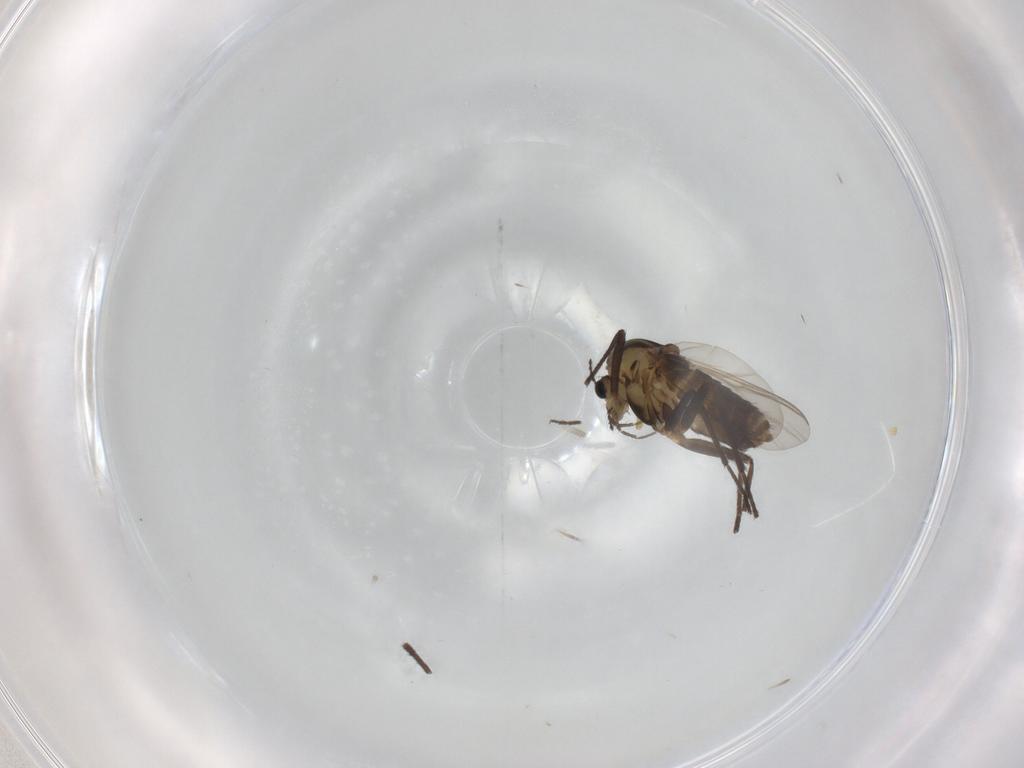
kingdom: Animalia
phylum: Arthropoda
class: Insecta
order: Diptera
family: Chironomidae
